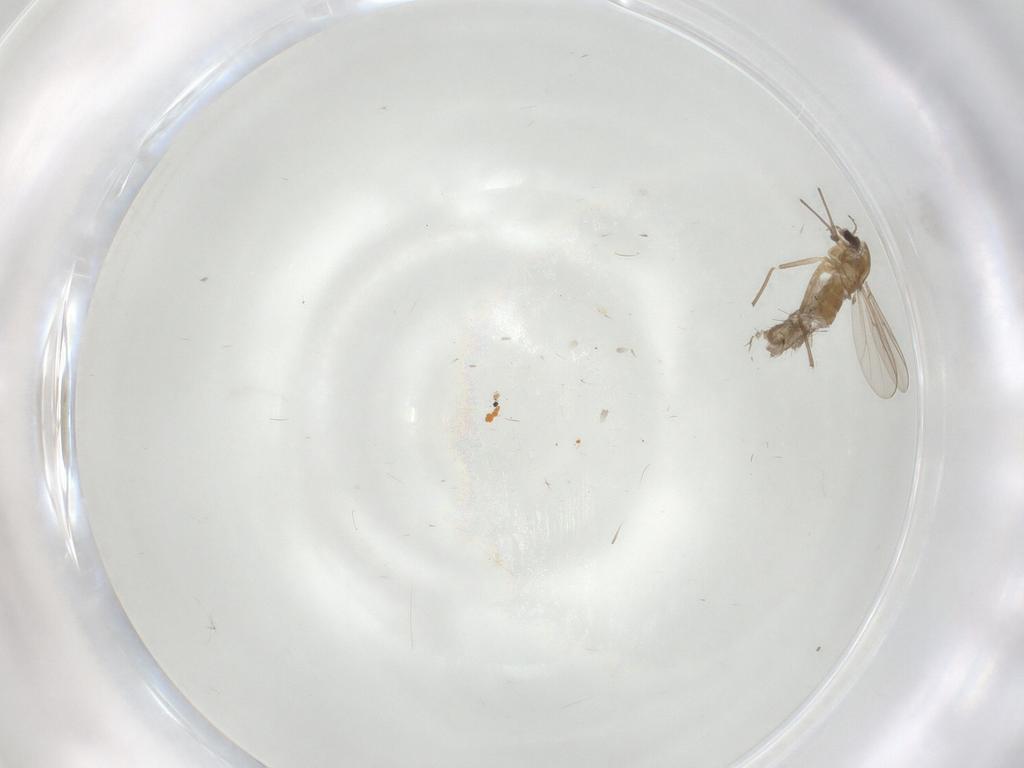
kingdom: Animalia
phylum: Arthropoda
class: Insecta
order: Diptera
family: Chironomidae
